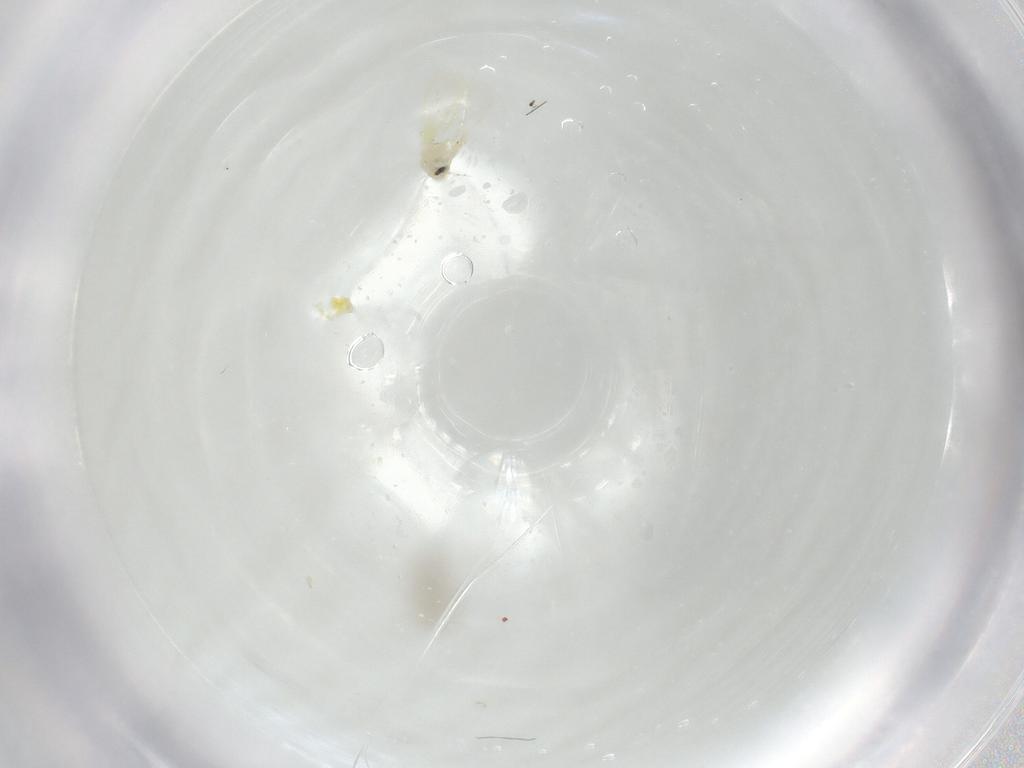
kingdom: Animalia
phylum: Arthropoda
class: Insecta
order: Hemiptera
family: Aleyrodidae
